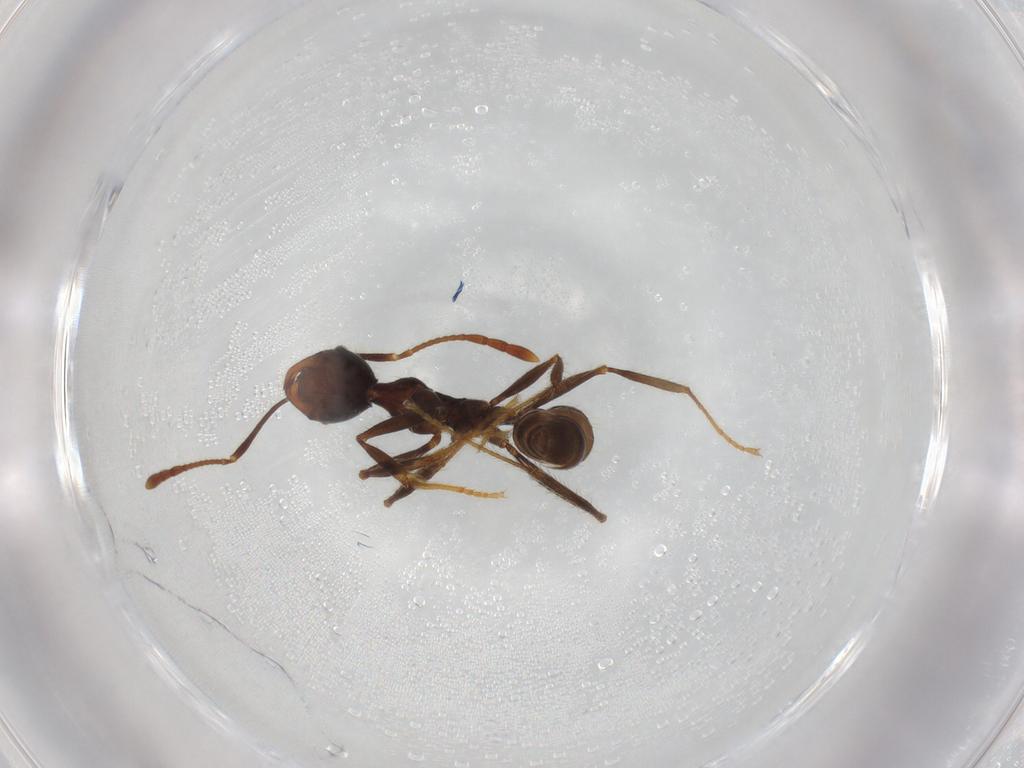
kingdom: Animalia
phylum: Arthropoda
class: Insecta
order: Hymenoptera
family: Formicidae
